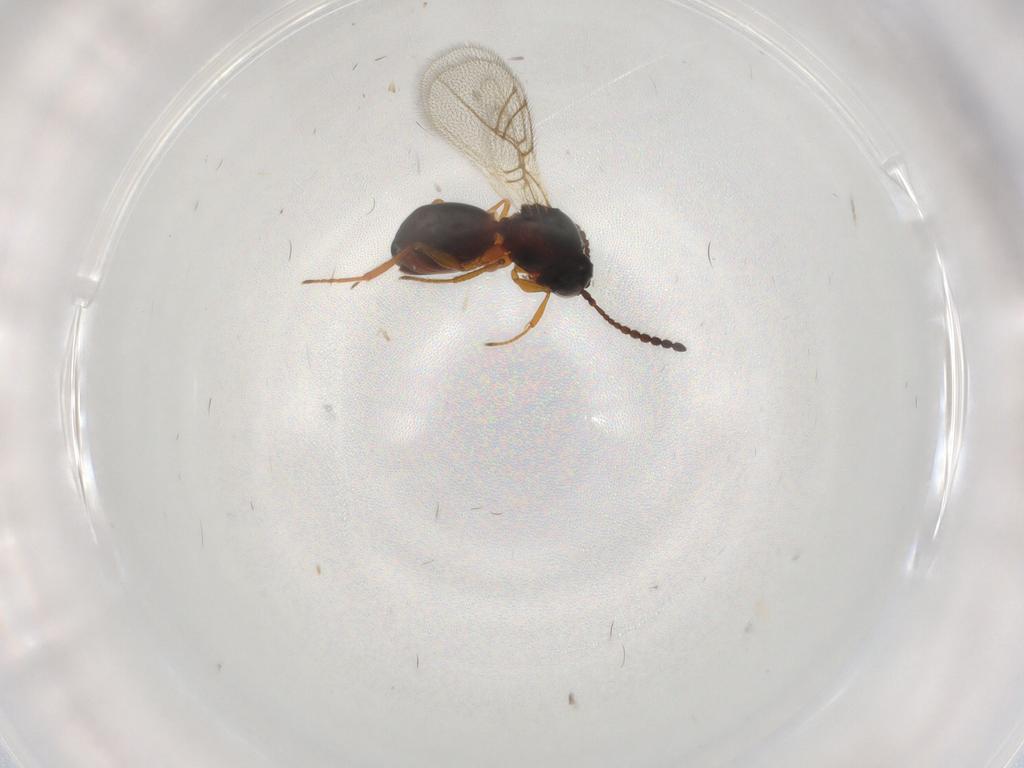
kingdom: Animalia
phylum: Arthropoda
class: Insecta
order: Hymenoptera
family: Figitidae
